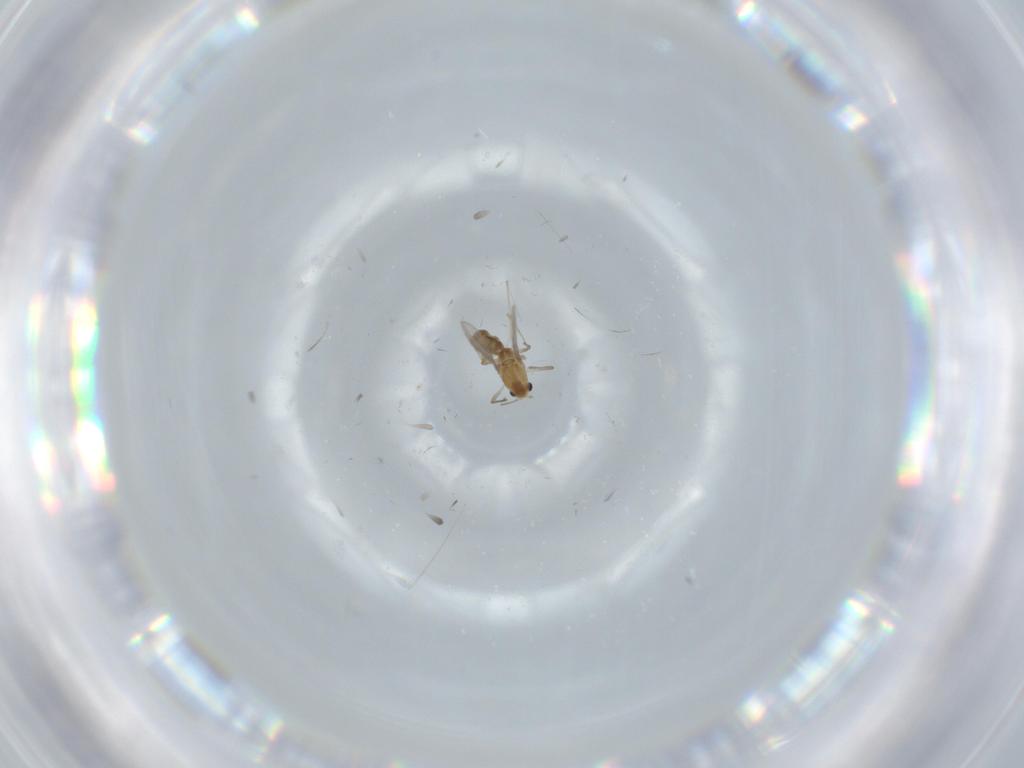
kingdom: Animalia
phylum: Arthropoda
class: Insecta
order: Diptera
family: Chironomidae
